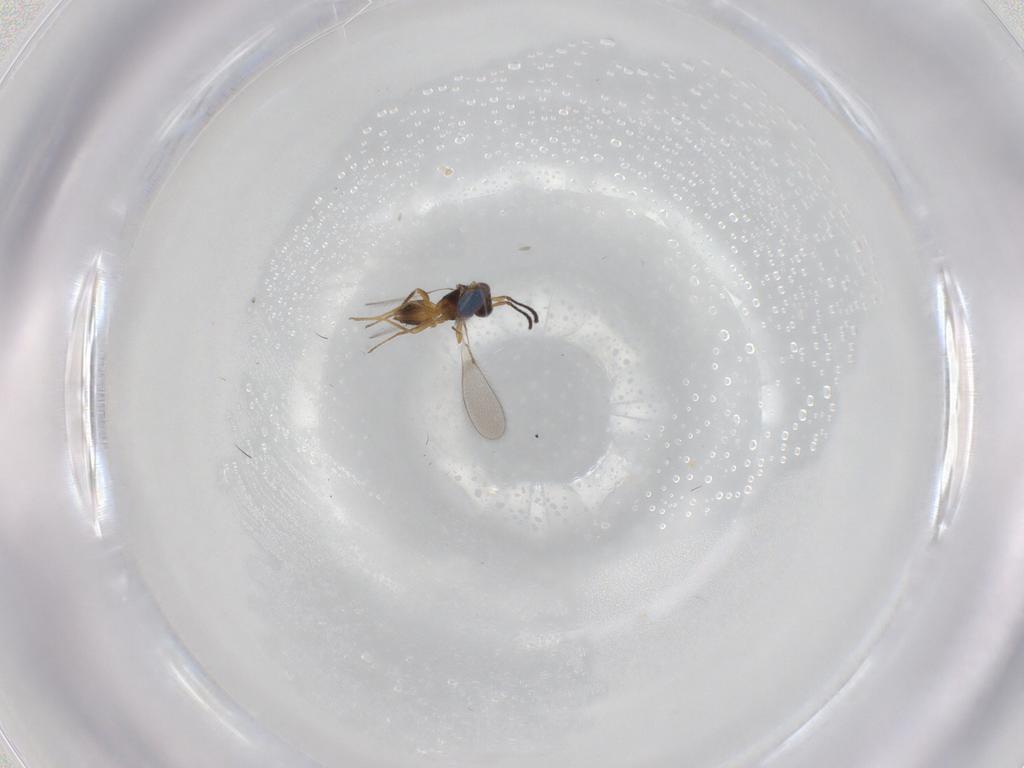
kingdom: Animalia
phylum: Arthropoda
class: Insecta
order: Hymenoptera
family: Mymaridae
